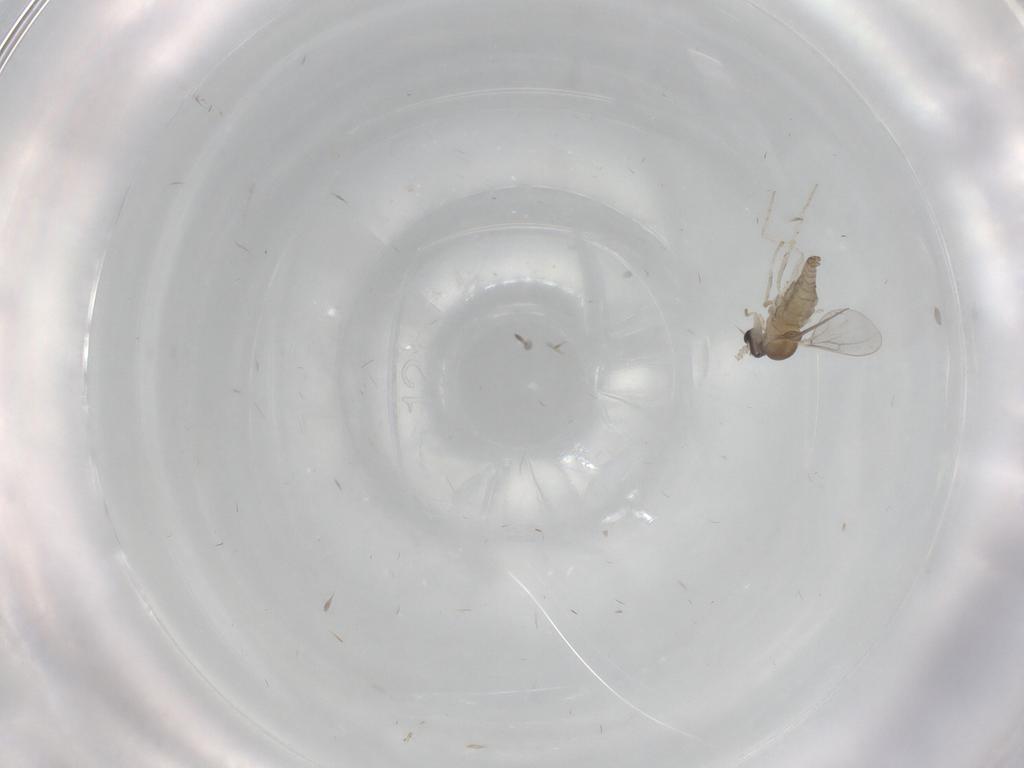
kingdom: Animalia
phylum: Arthropoda
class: Insecta
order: Diptera
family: Cecidomyiidae
